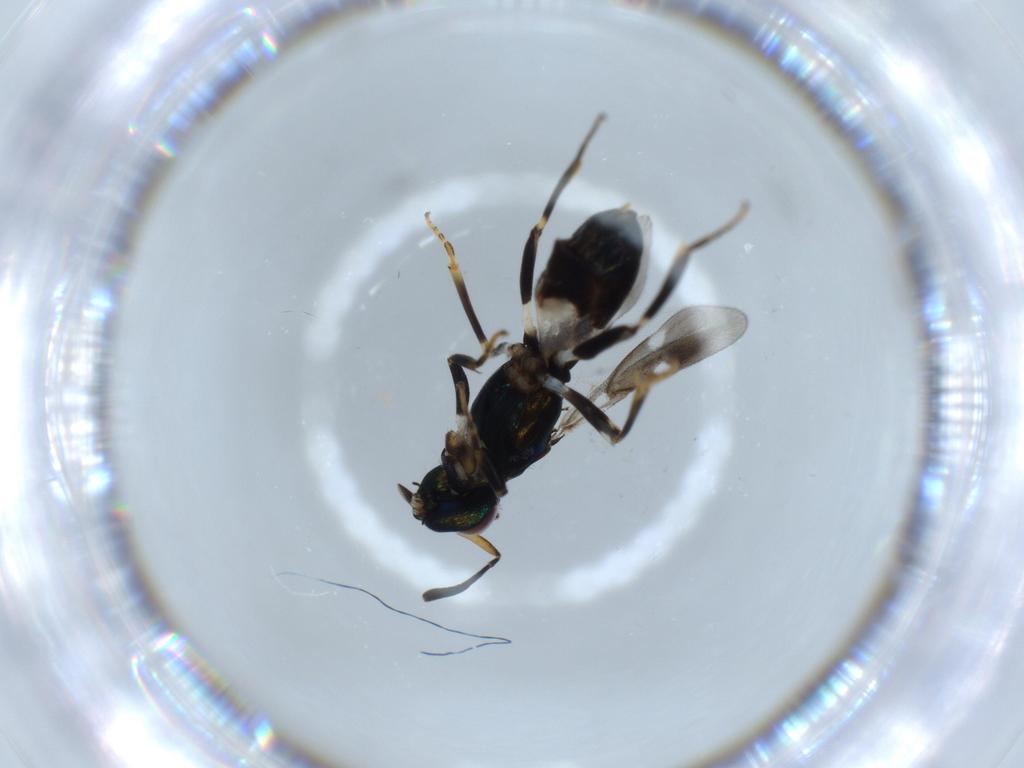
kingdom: Animalia
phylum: Arthropoda
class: Insecta
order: Hymenoptera
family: Eupelmidae
